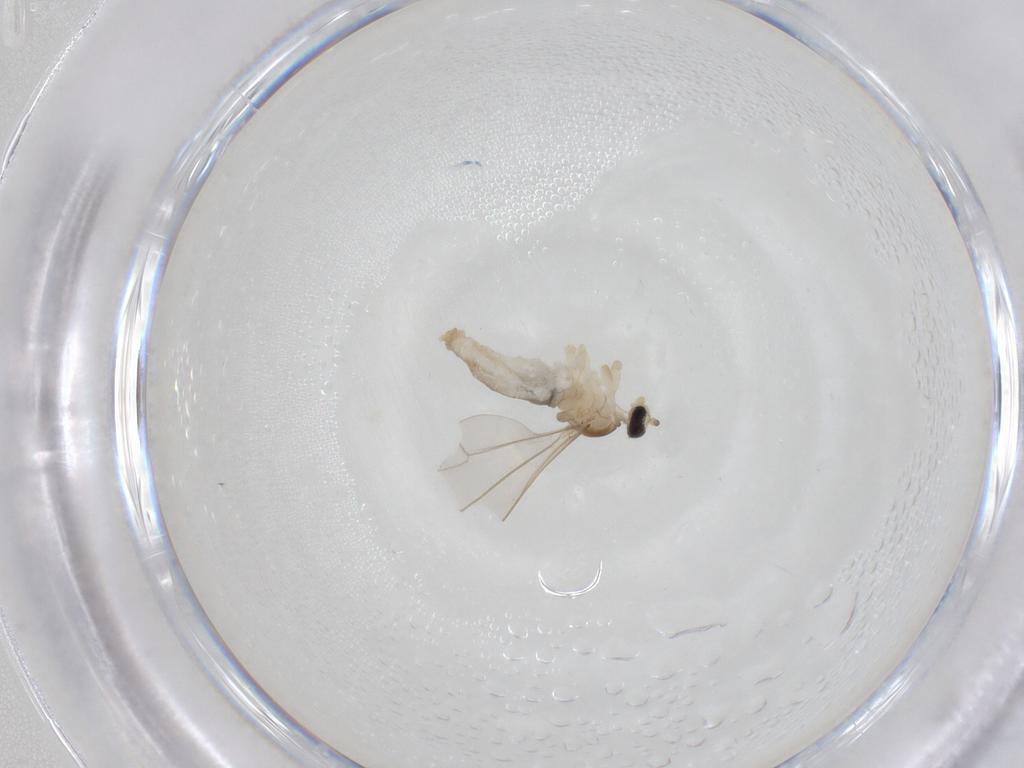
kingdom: Animalia
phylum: Arthropoda
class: Insecta
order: Diptera
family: Cecidomyiidae
